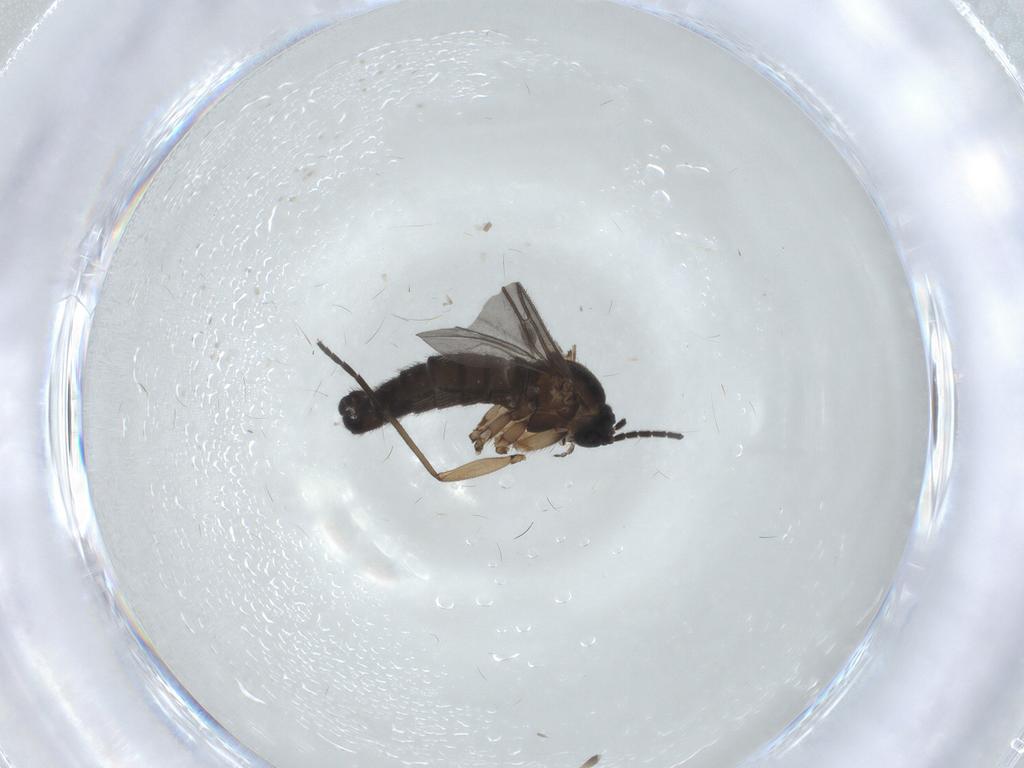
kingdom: Animalia
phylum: Arthropoda
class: Insecta
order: Diptera
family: Sciaridae
